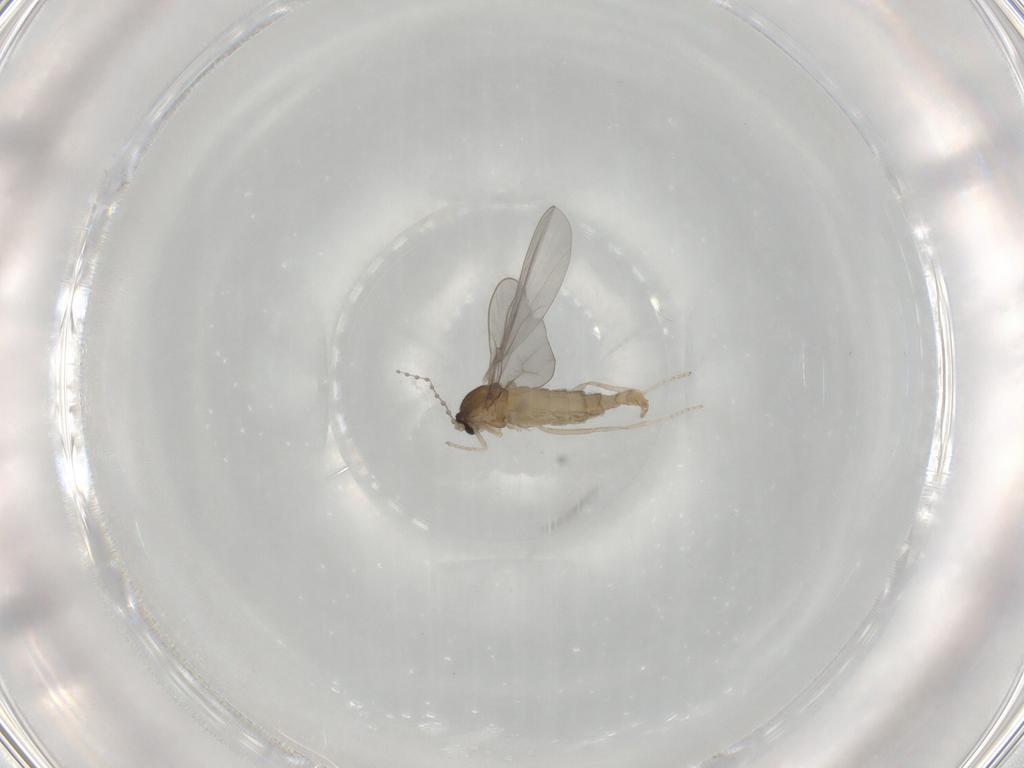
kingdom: Animalia
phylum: Arthropoda
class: Insecta
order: Diptera
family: Cecidomyiidae
